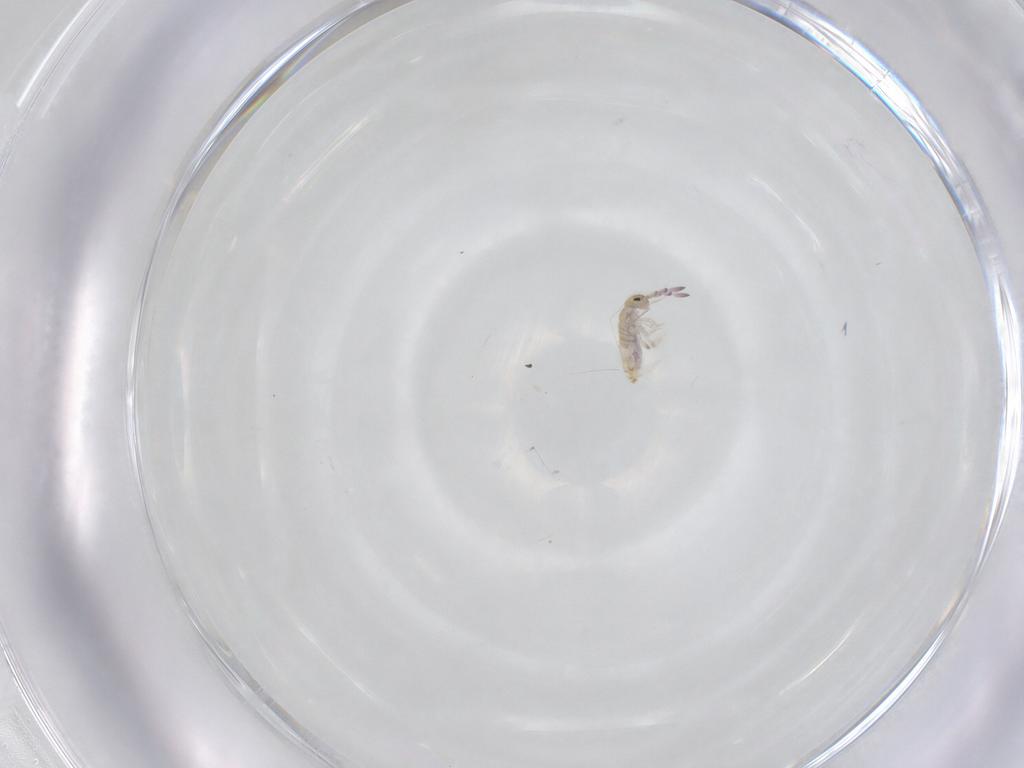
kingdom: Animalia
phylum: Arthropoda
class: Collembola
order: Entomobryomorpha
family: Entomobryidae
